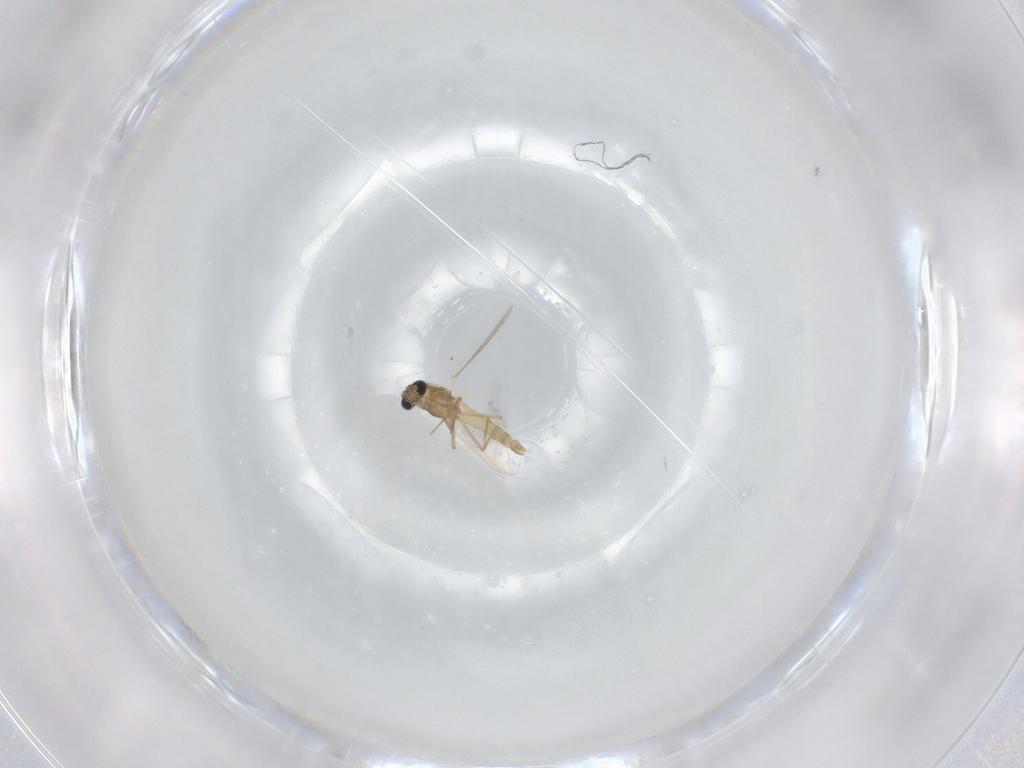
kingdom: Animalia
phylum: Arthropoda
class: Insecta
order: Diptera
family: Chironomidae
